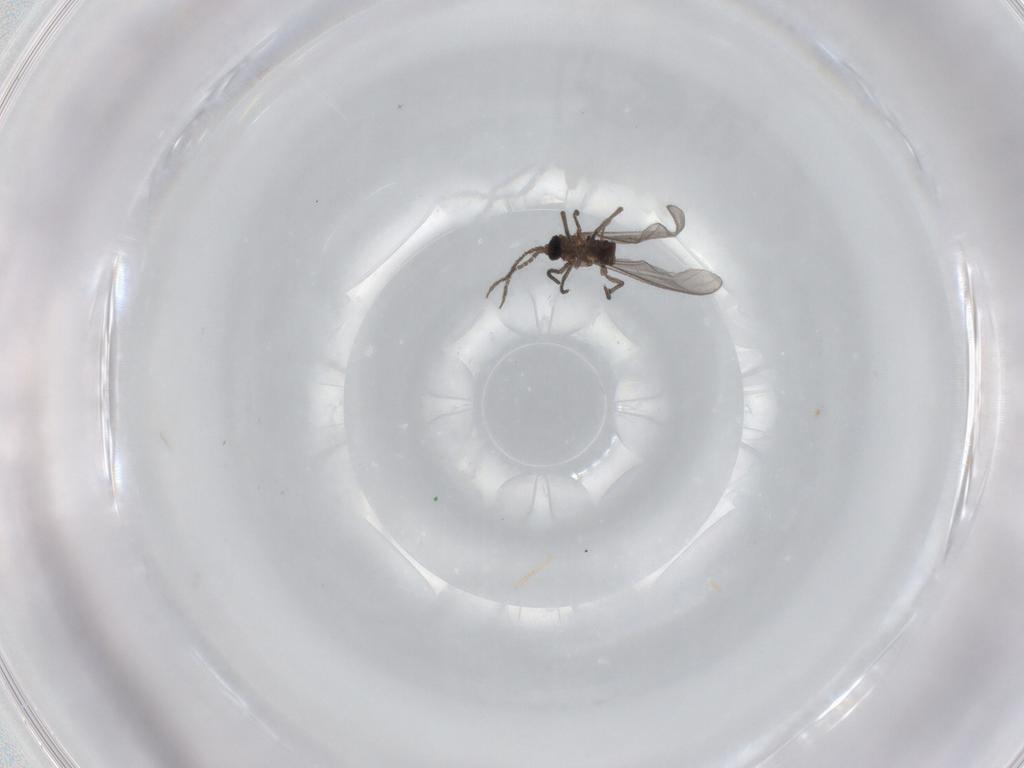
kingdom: Animalia
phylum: Arthropoda
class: Insecta
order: Diptera
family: Sciaridae
